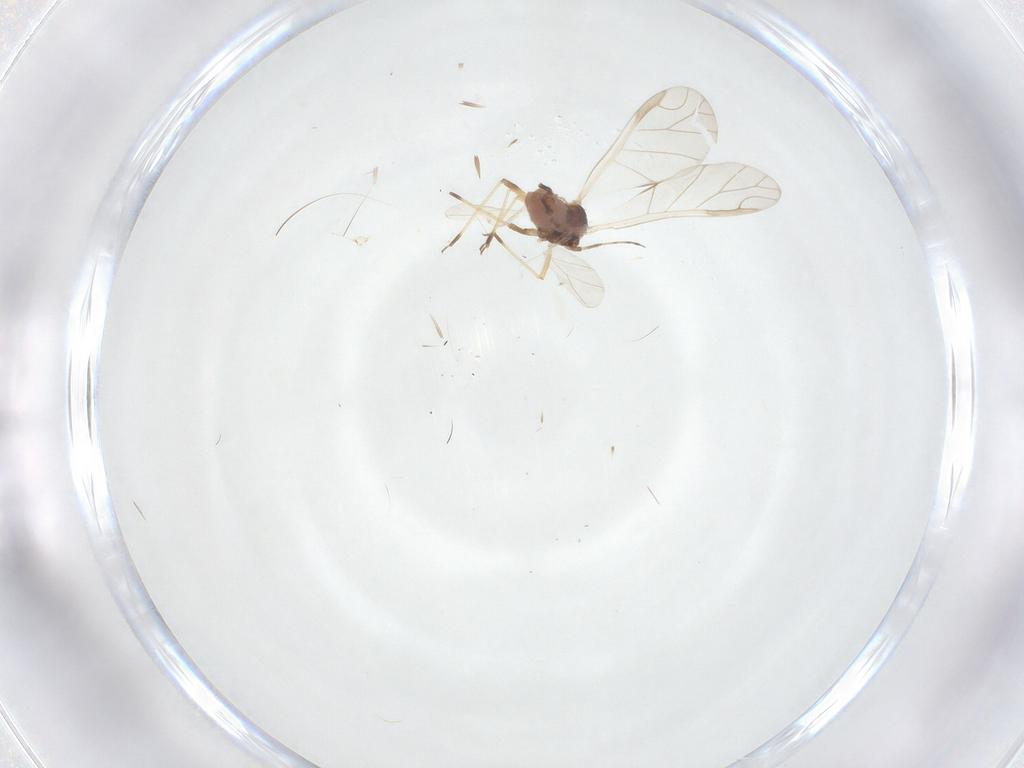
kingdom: Animalia
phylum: Arthropoda
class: Insecta
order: Hemiptera
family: Aphididae
